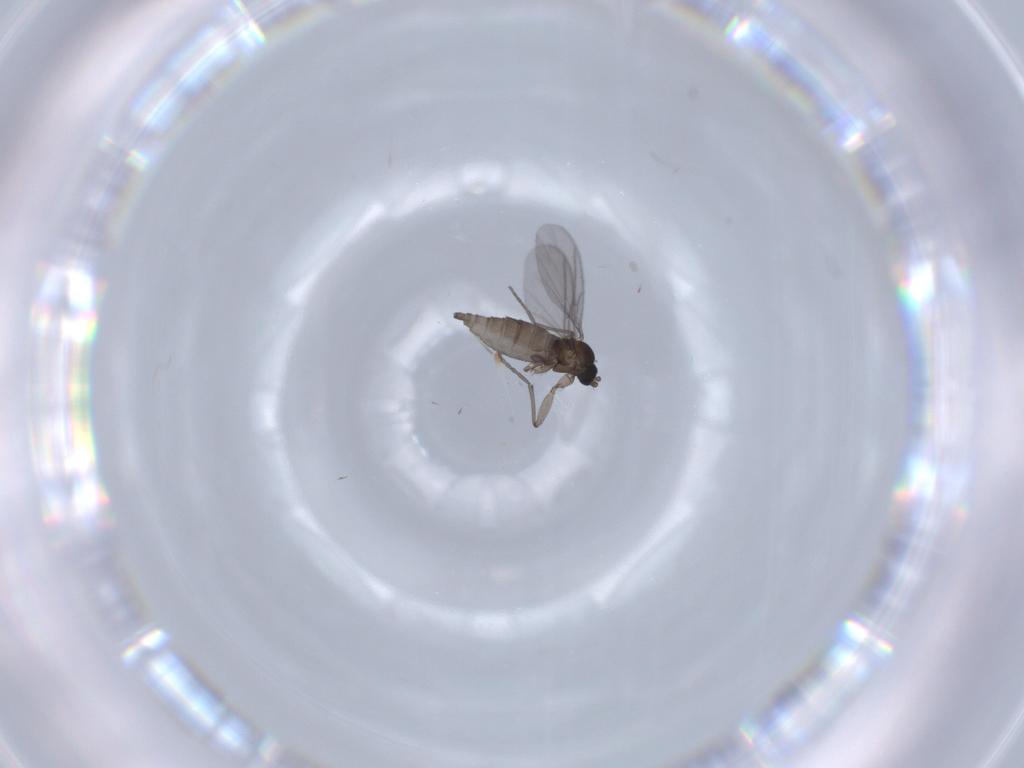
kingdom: Animalia
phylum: Arthropoda
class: Insecta
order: Diptera
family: Sciaridae
